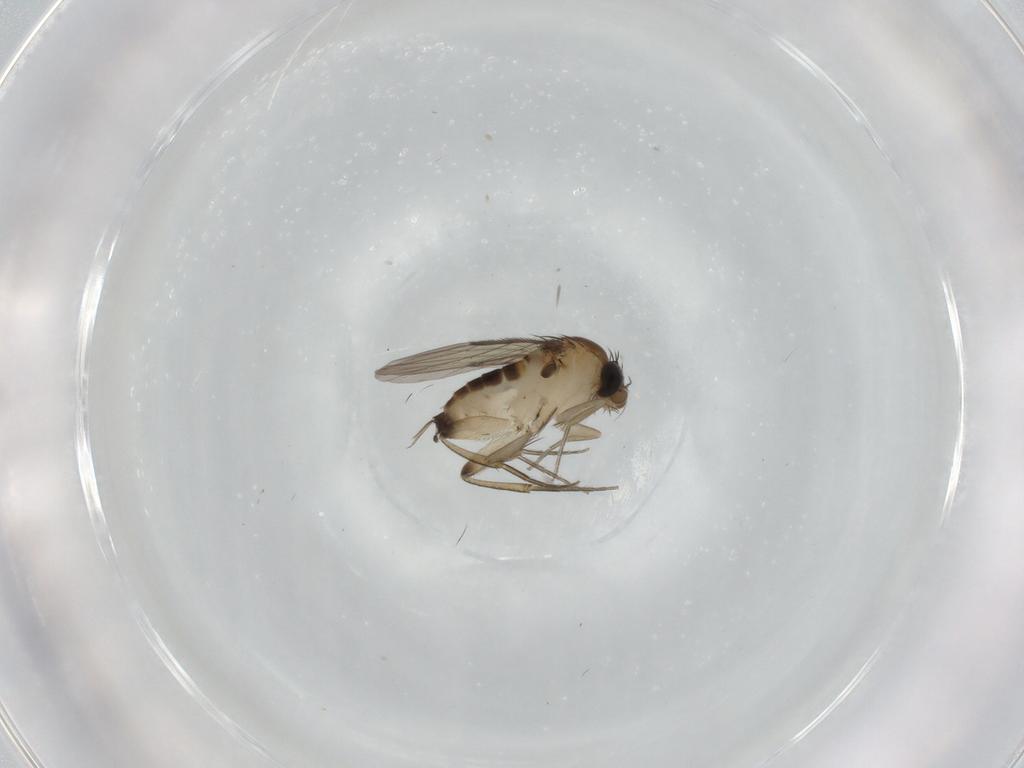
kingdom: Animalia
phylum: Arthropoda
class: Insecta
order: Diptera
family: Phoridae
